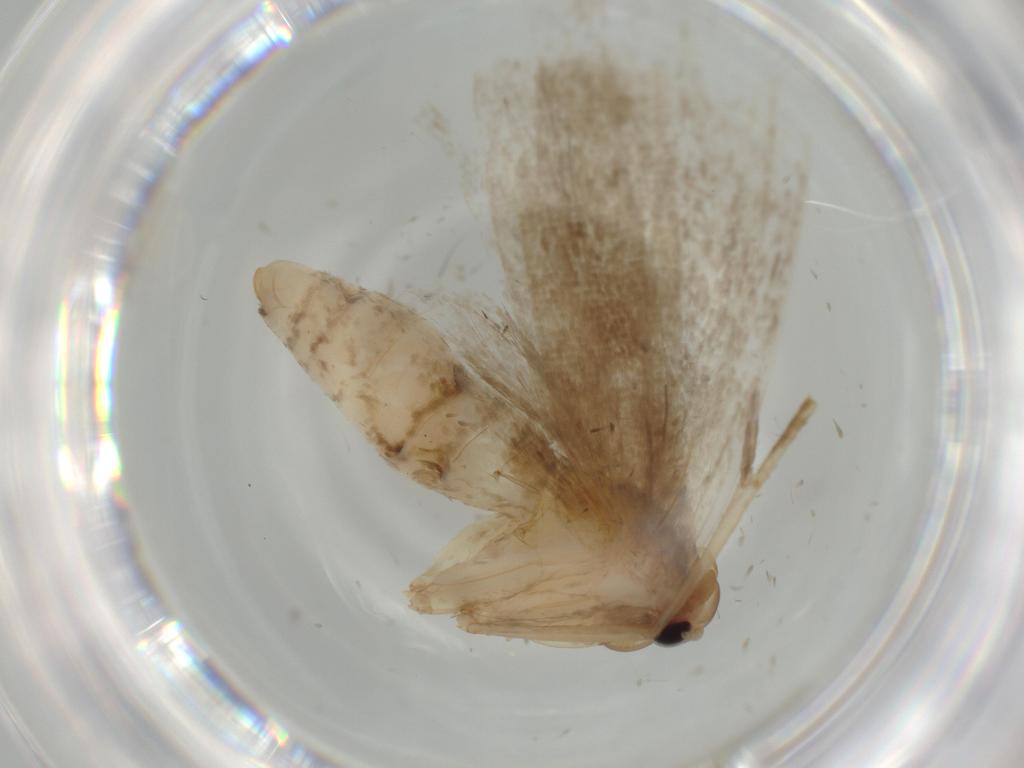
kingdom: Animalia
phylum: Arthropoda
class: Insecta
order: Lepidoptera
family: Erebidae
